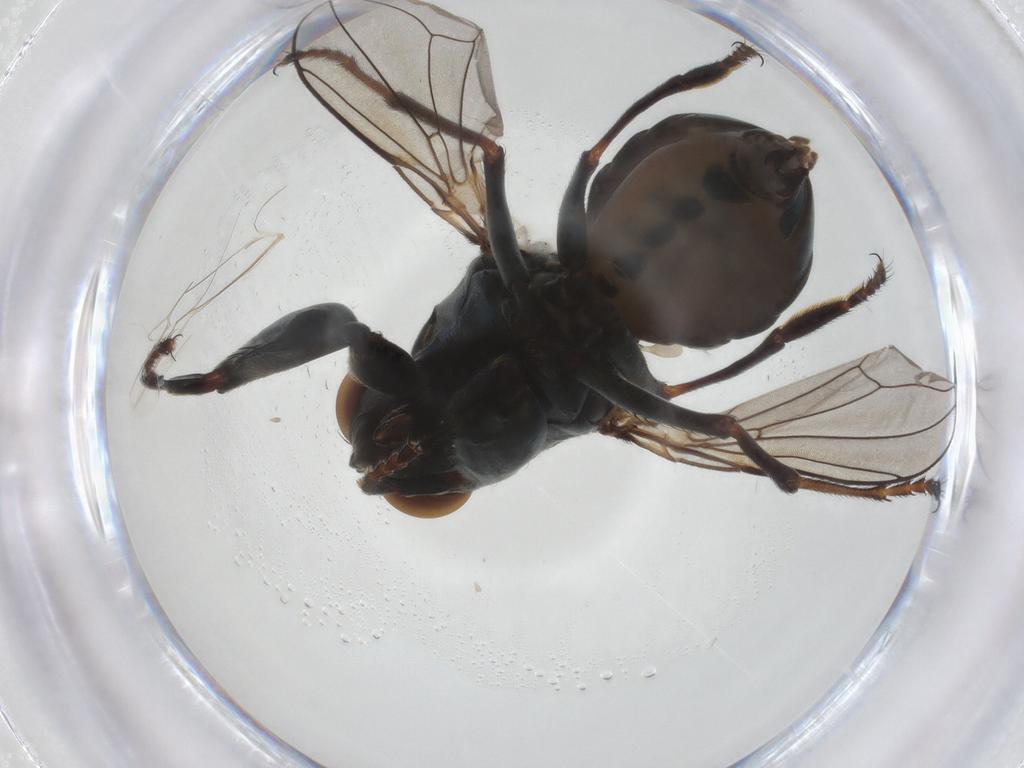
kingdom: Animalia
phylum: Arthropoda
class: Insecta
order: Diptera
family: Ephydridae
